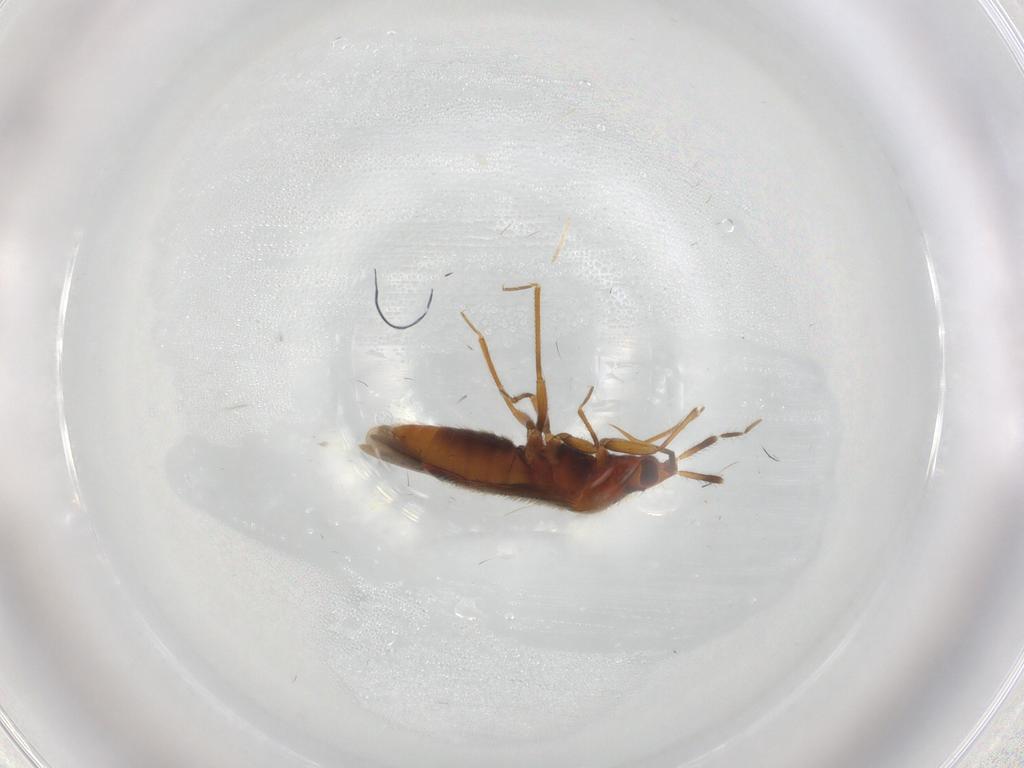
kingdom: Animalia
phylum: Arthropoda
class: Insecta
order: Hemiptera
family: Anthocoridae
